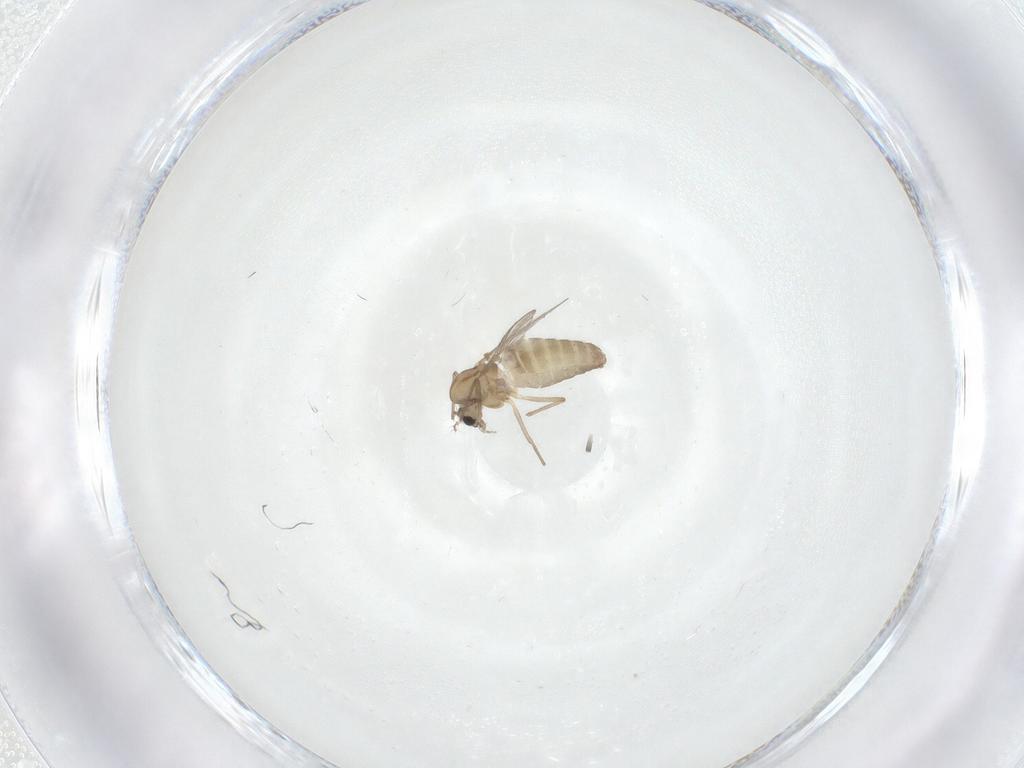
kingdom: Animalia
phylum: Arthropoda
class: Insecta
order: Diptera
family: Chironomidae
